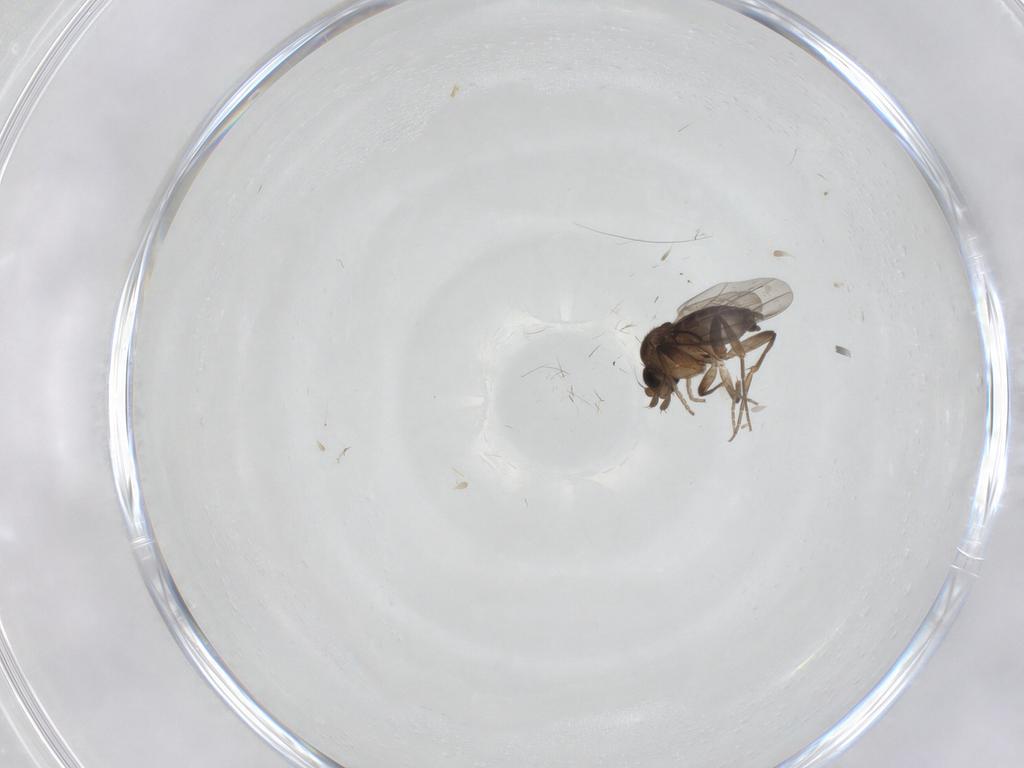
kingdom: Animalia
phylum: Arthropoda
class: Insecta
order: Diptera
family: Phoridae
